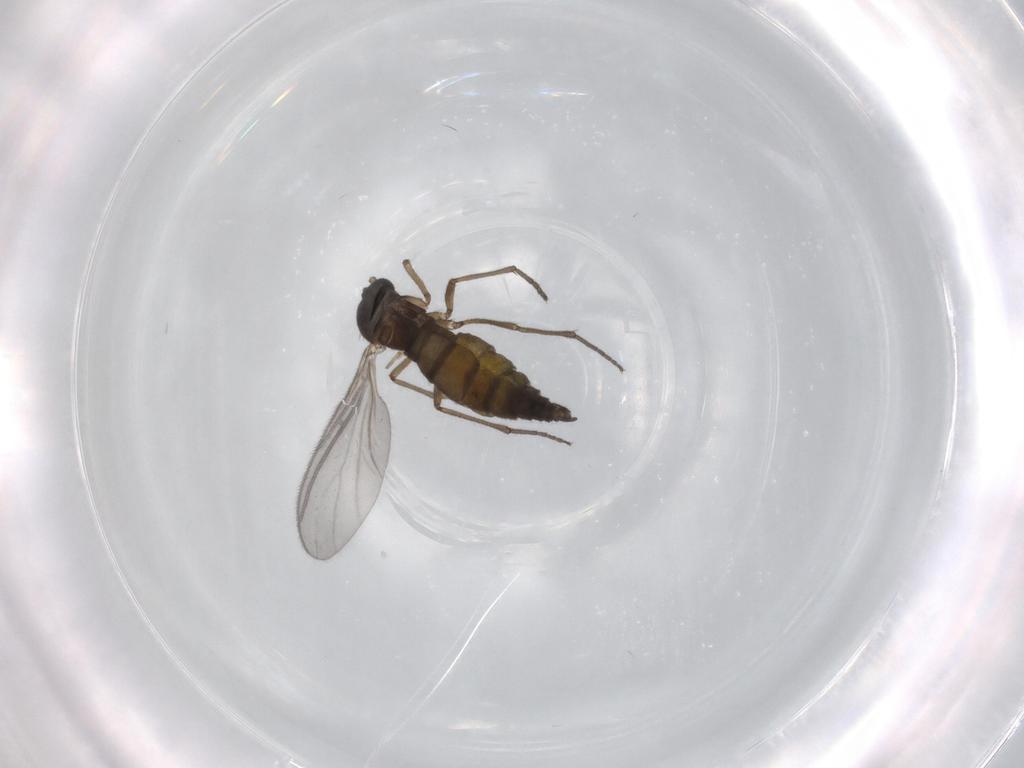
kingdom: Animalia
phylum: Arthropoda
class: Insecta
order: Diptera
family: Sciaridae
